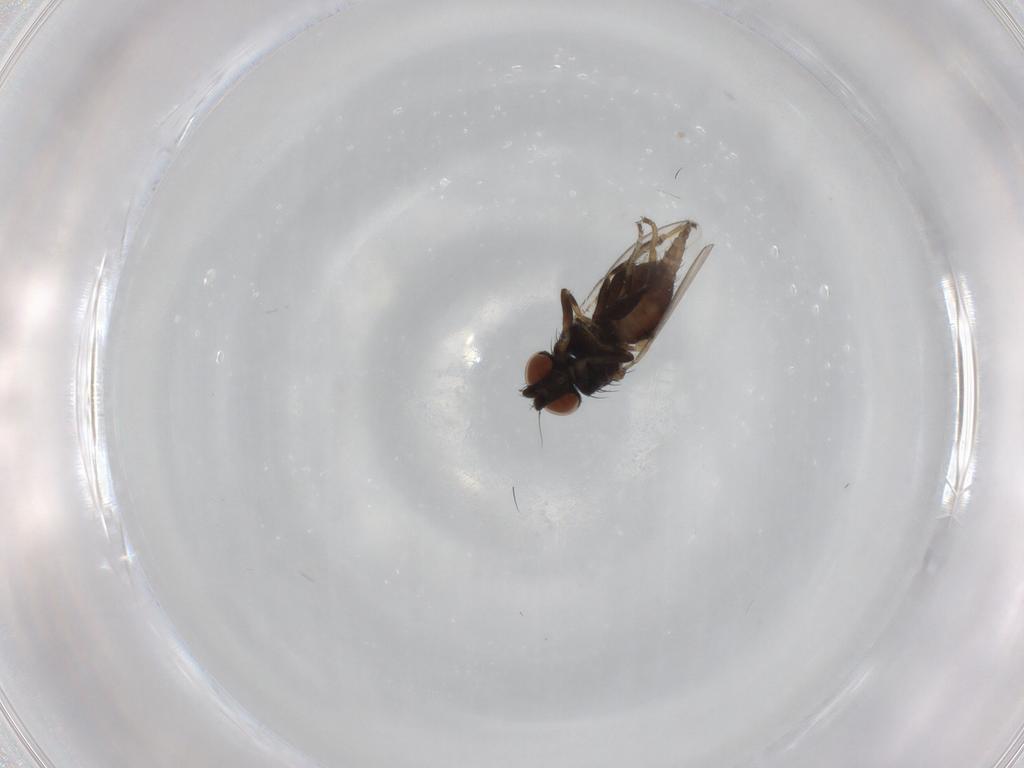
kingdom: Animalia
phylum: Arthropoda
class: Insecta
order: Diptera
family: Milichiidae
